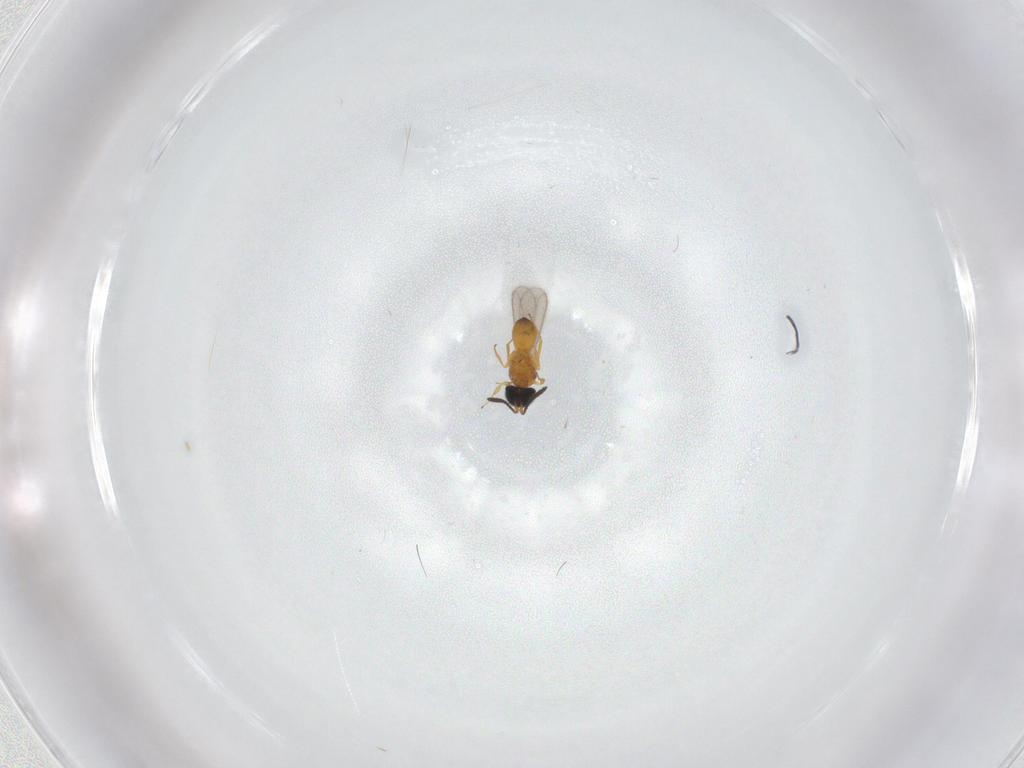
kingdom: Animalia
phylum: Arthropoda
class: Insecta
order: Hymenoptera
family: Scelionidae
